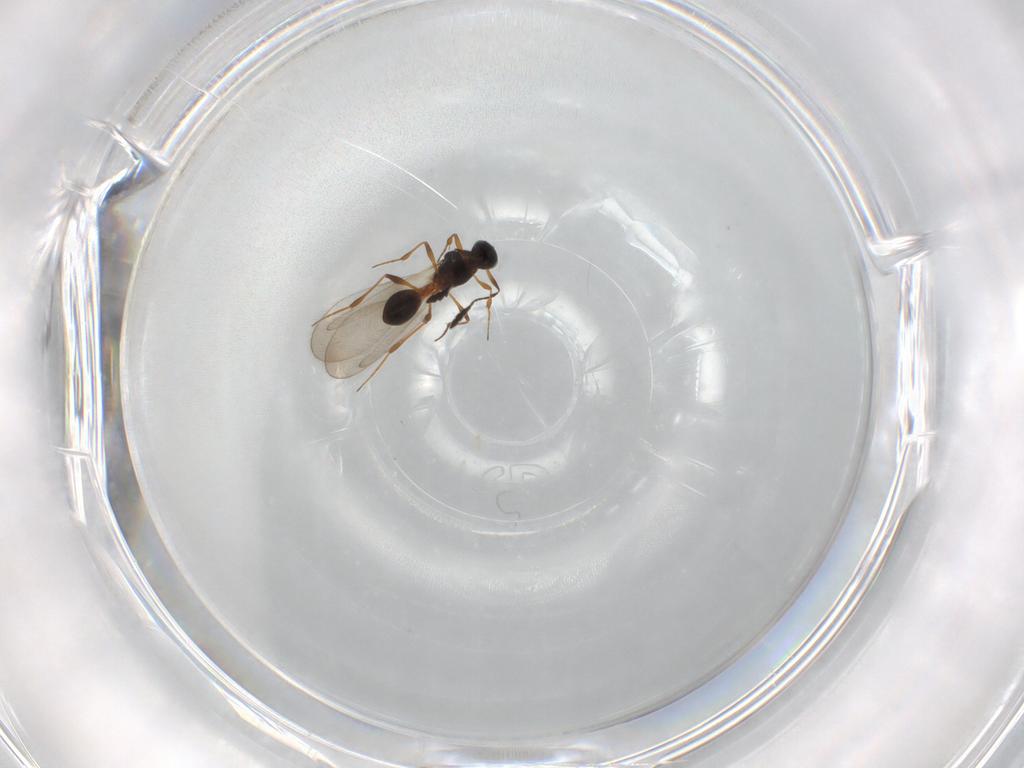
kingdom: Animalia
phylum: Arthropoda
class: Insecta
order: Hymenoptera
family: Platygastridae
